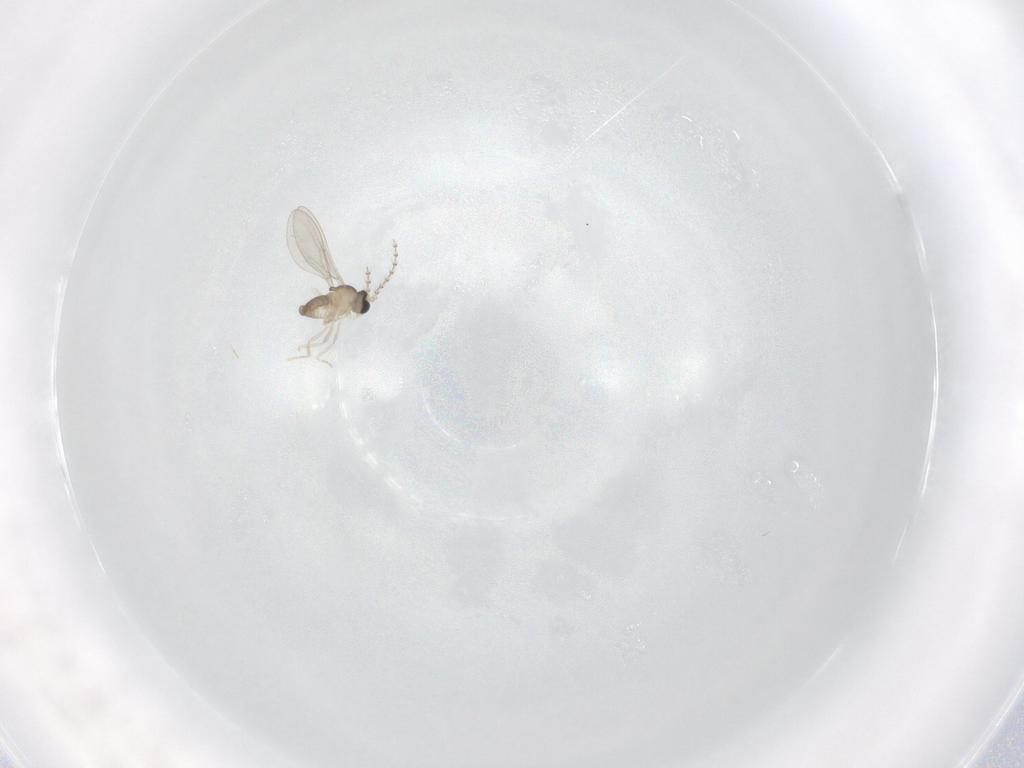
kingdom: Animalia
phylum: Arthropoda
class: Insecta
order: Diptera
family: Cecidomyiidae
